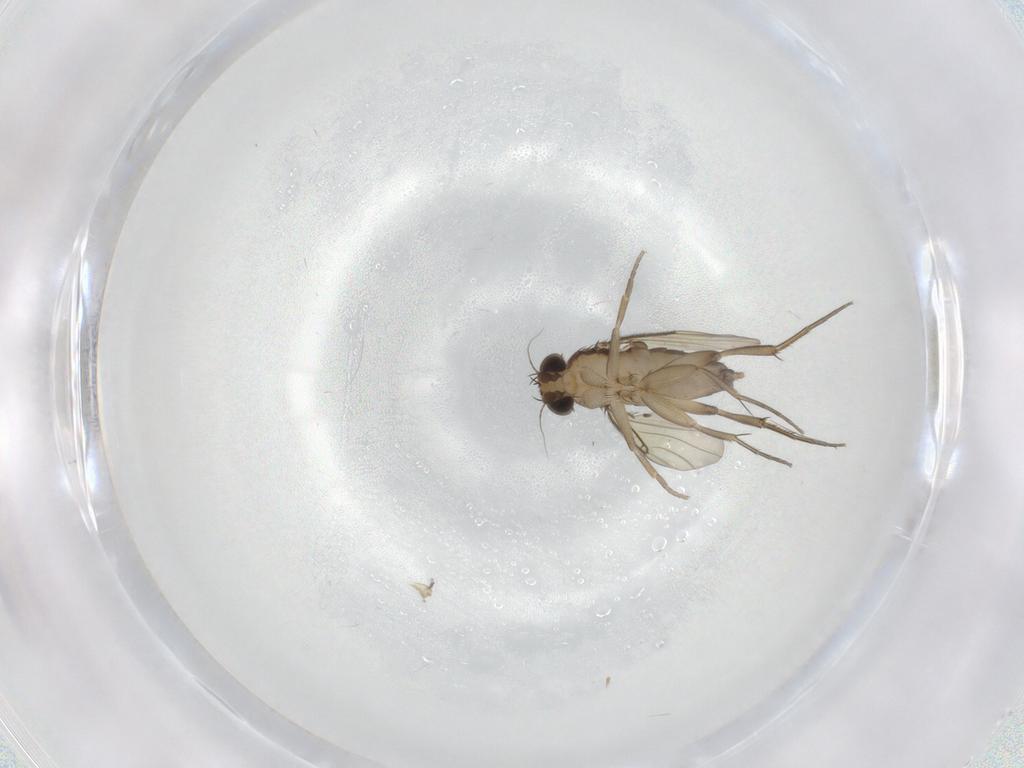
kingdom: Animalia
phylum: Arthropoda
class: Insecta
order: Diptera
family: Phoridae
